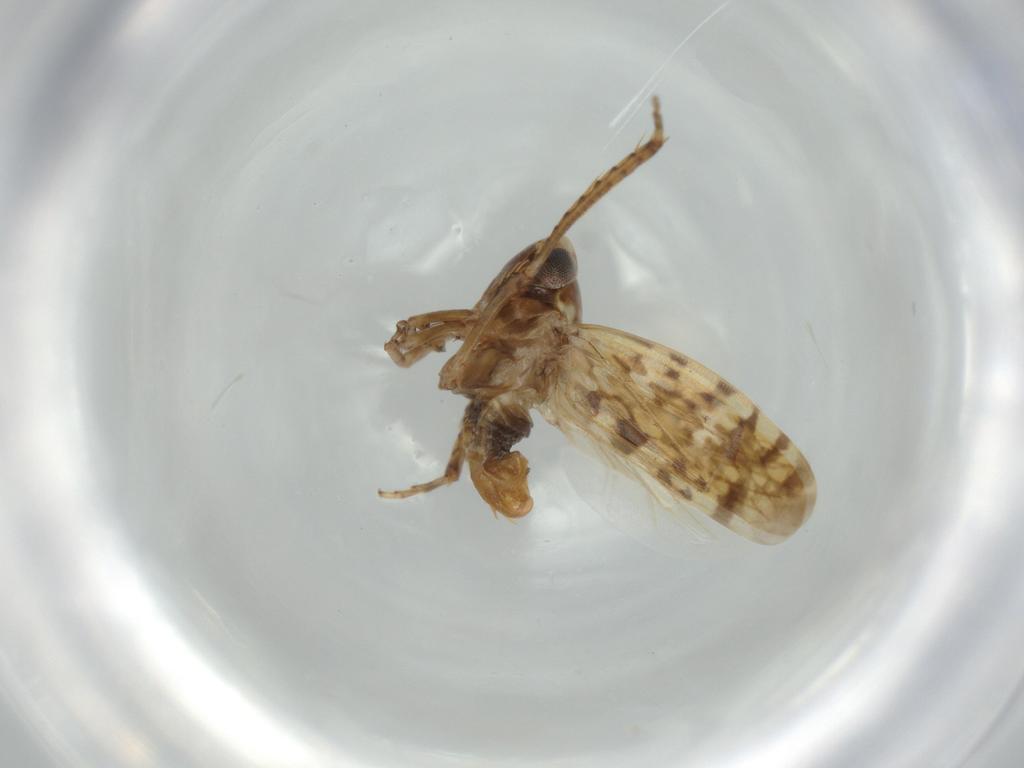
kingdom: Animalia
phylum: Arthropoda
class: Insecta
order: Hemiptera
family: Cicadellidae
